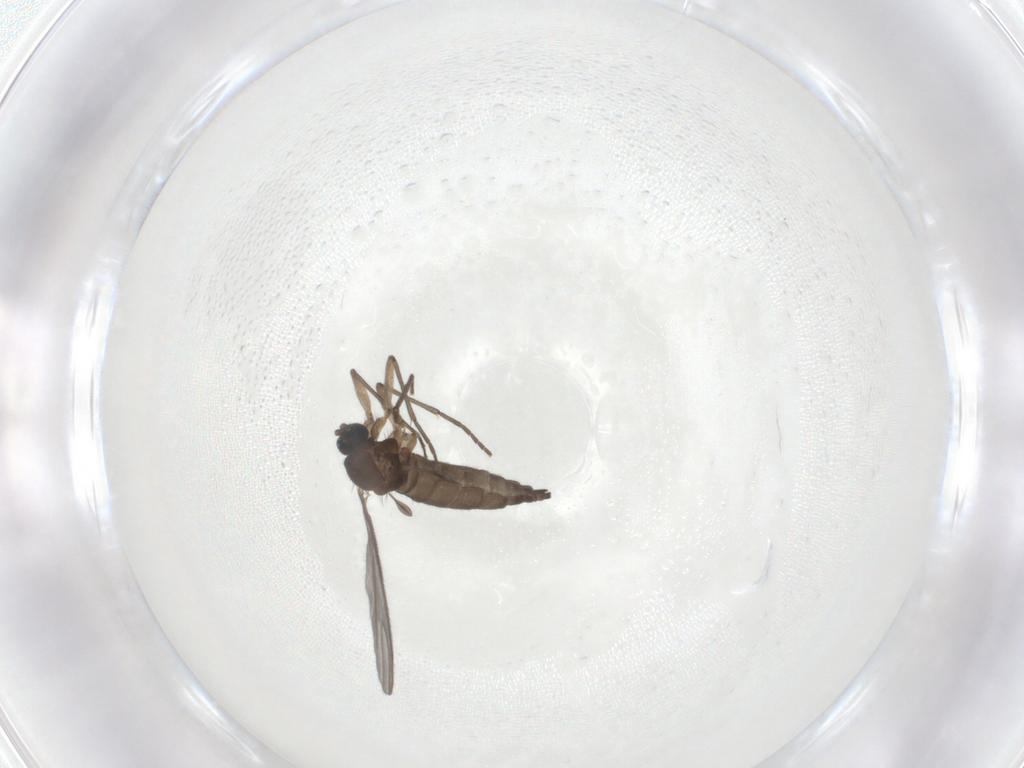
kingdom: Animalia
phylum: Arthropoda
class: Insecta
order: Diptera
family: Sciaridae
